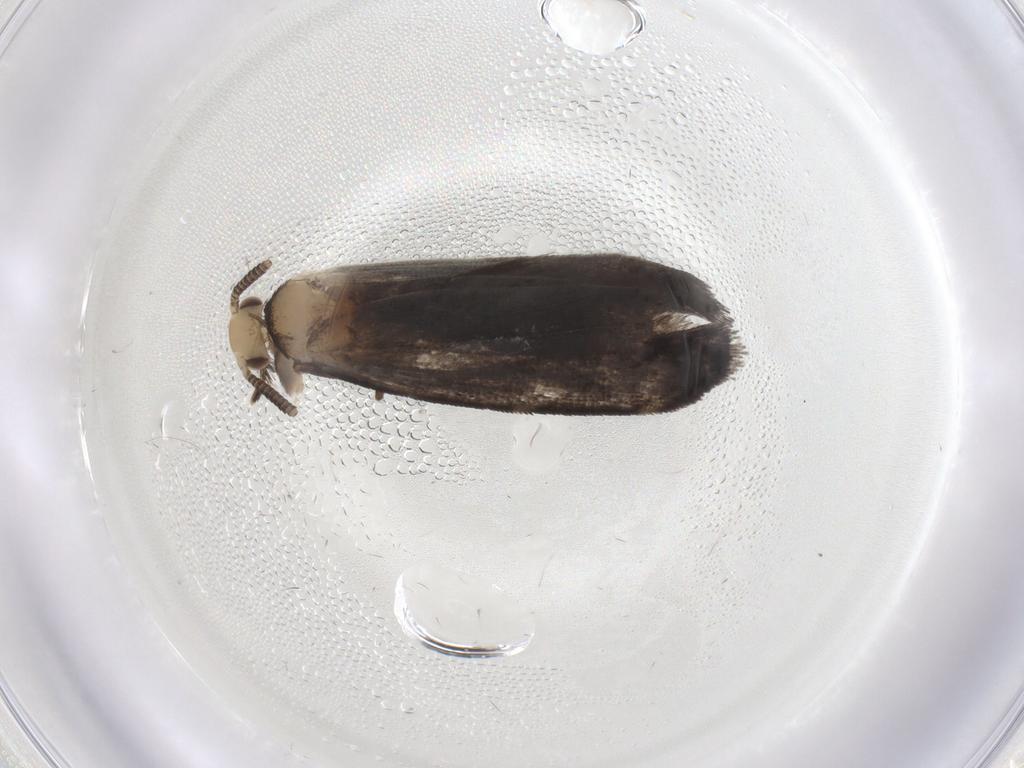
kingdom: Animalia
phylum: Arthropoda
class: Insecta
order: Lepidoptera
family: Dryadaulidae
